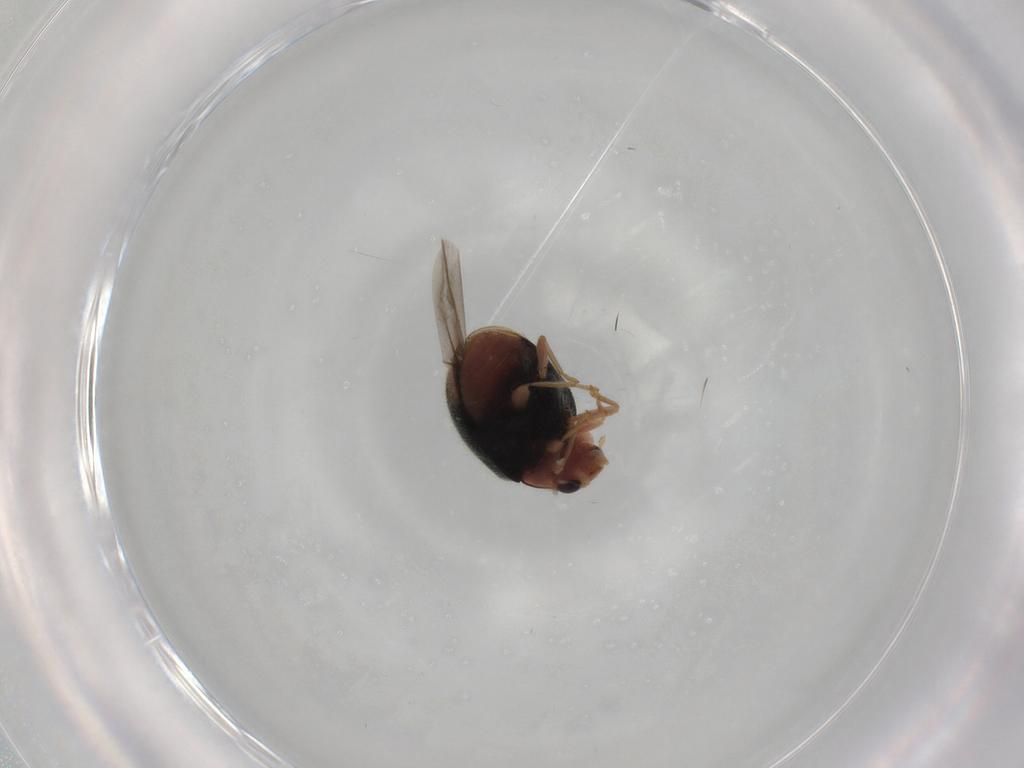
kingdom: Animalia
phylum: Arthropoda
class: Insecta
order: Coleoptera
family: Coccinellidae
